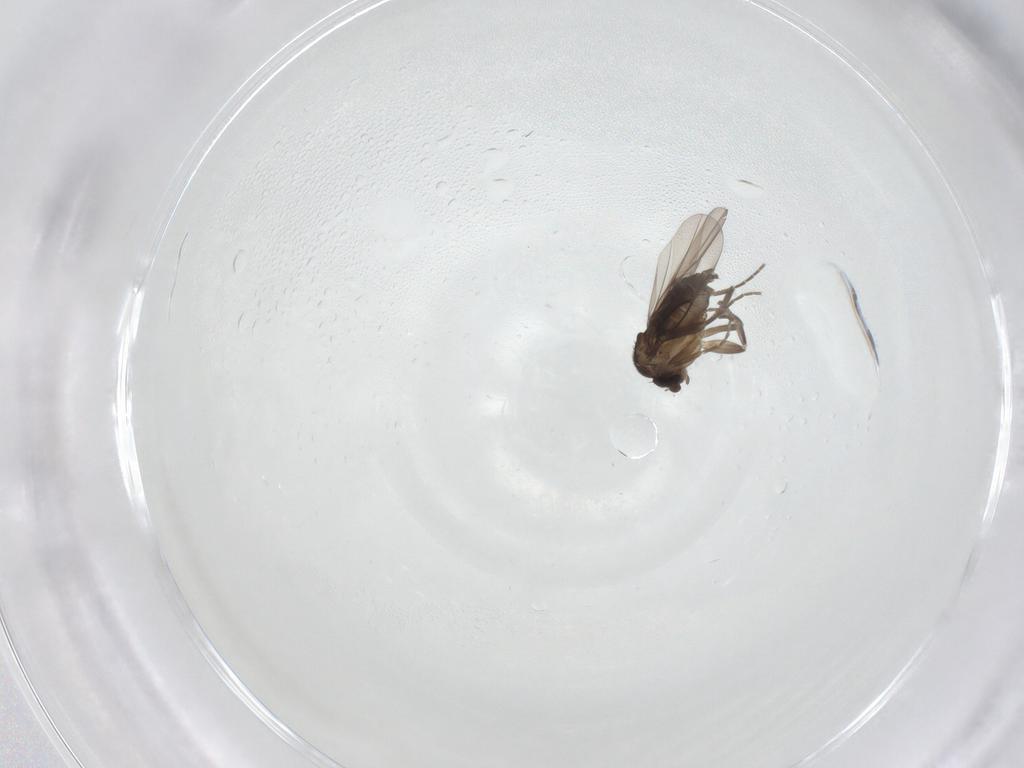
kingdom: Animalia
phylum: Arthropoda
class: Insecta
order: Diptera
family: Phoridae
